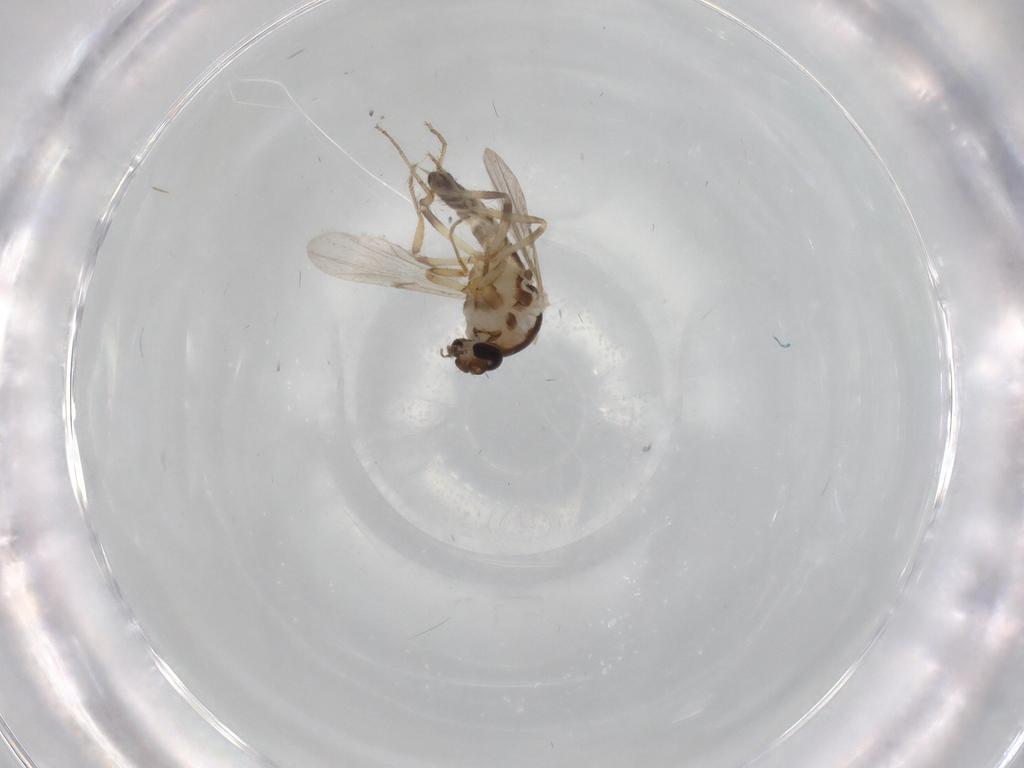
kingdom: Animalia
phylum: Arthropoda
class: Insecta
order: Diptera
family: Ceratopogonidae
